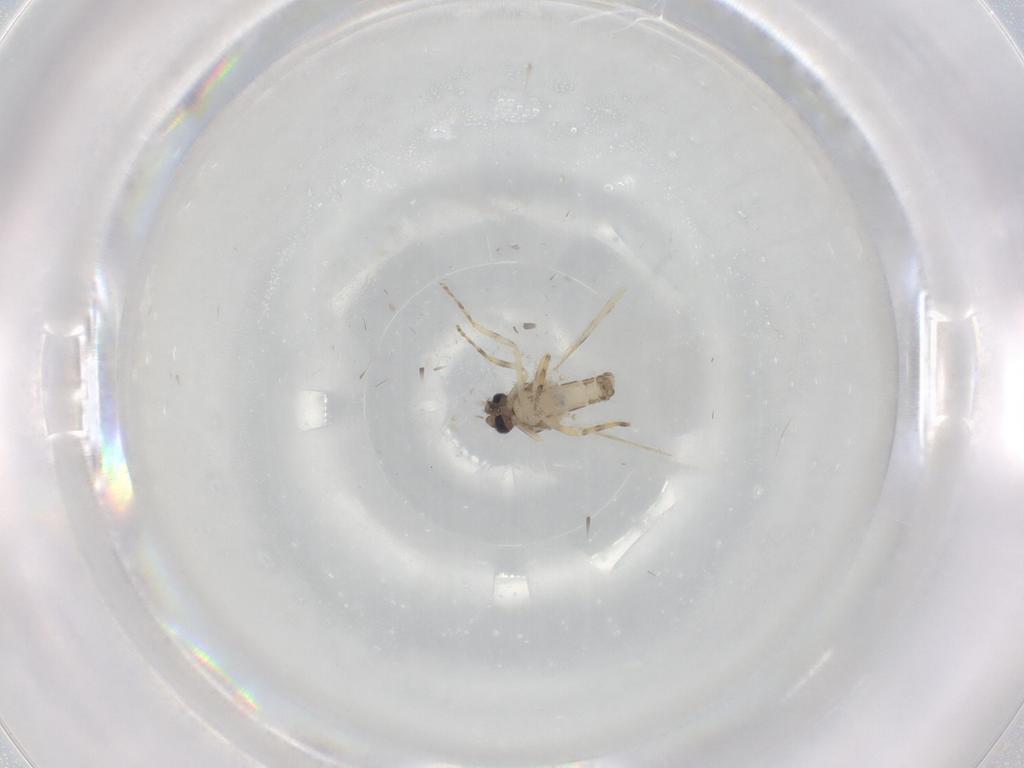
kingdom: Animalia
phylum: Arthropoda
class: Insecta
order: Diptera
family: Ceratopogonidae
